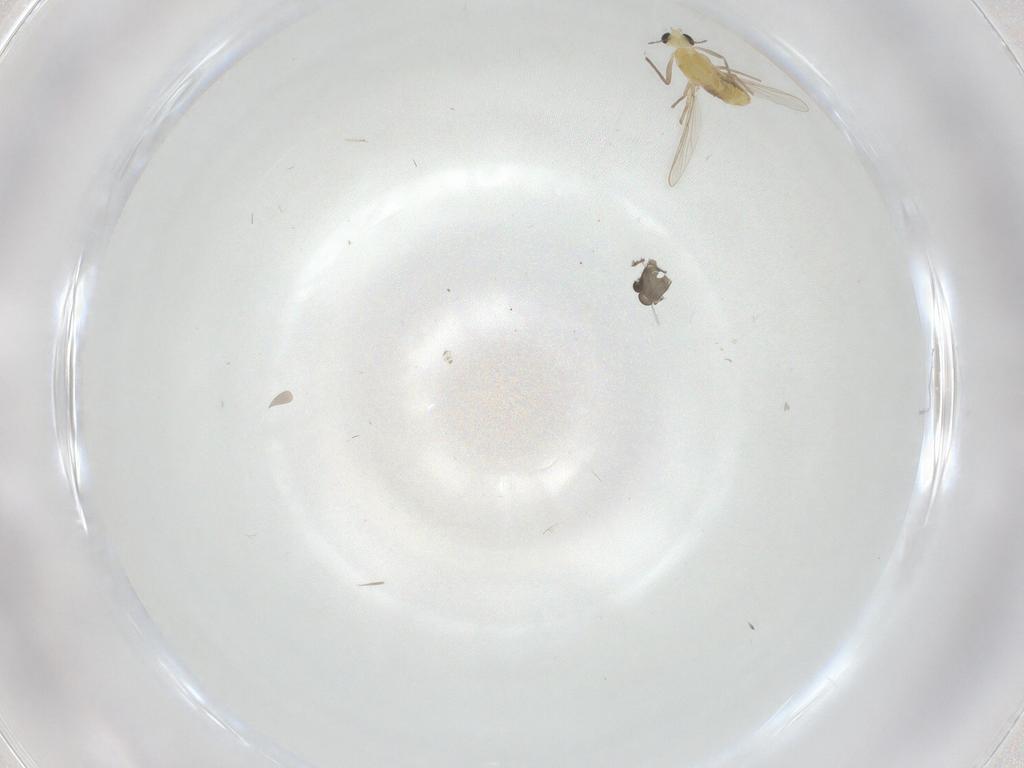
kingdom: Animalia
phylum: Arthropoda
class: Insecta
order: Diptera
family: Chironomidae
